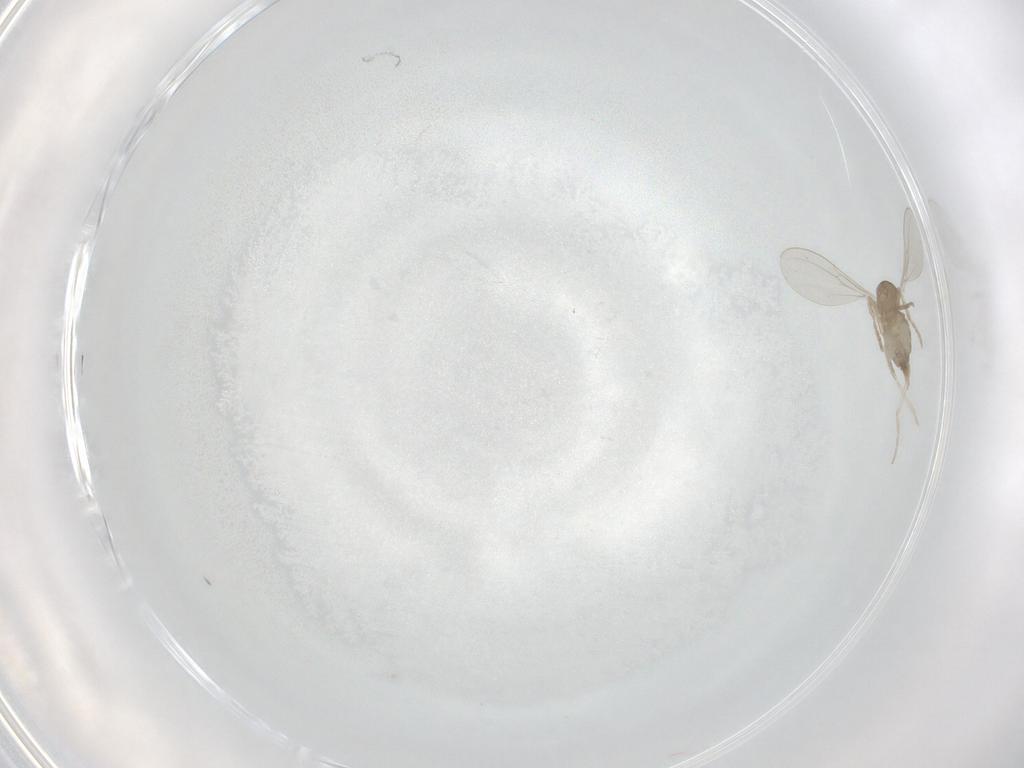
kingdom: Animalia
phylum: Arthropoda
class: Insecta
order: Diptera
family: Cecidomyiidae
